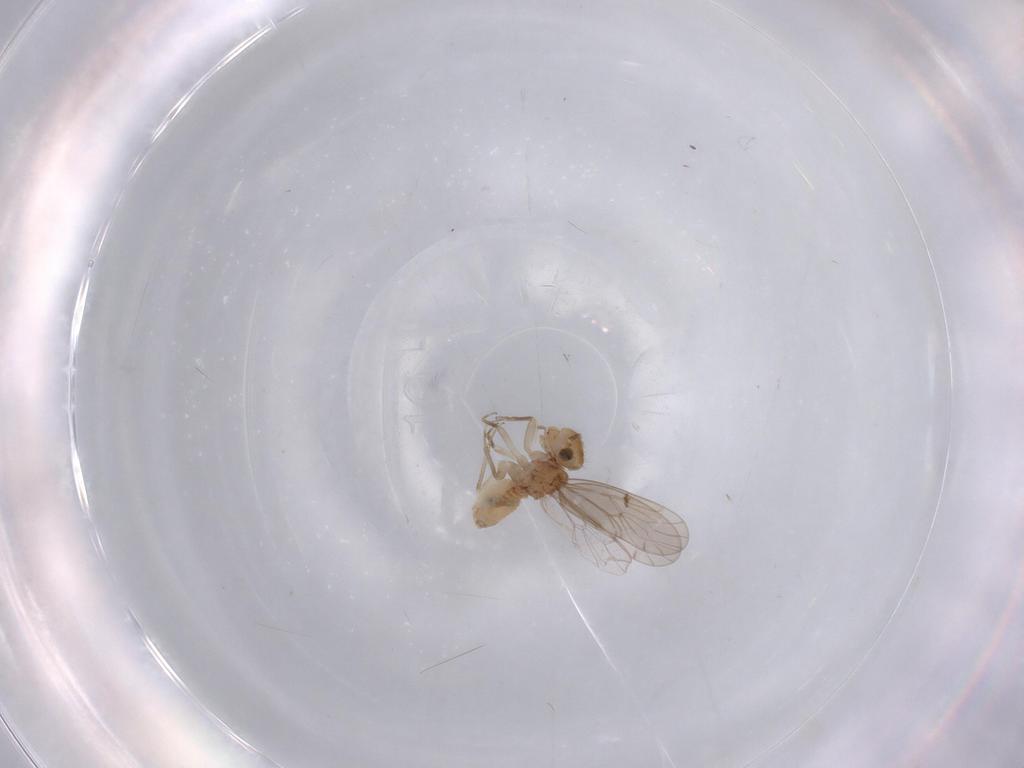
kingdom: Animalia
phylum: Arthropoda
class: Insecta
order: Psocodea
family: Ectopsocidae
